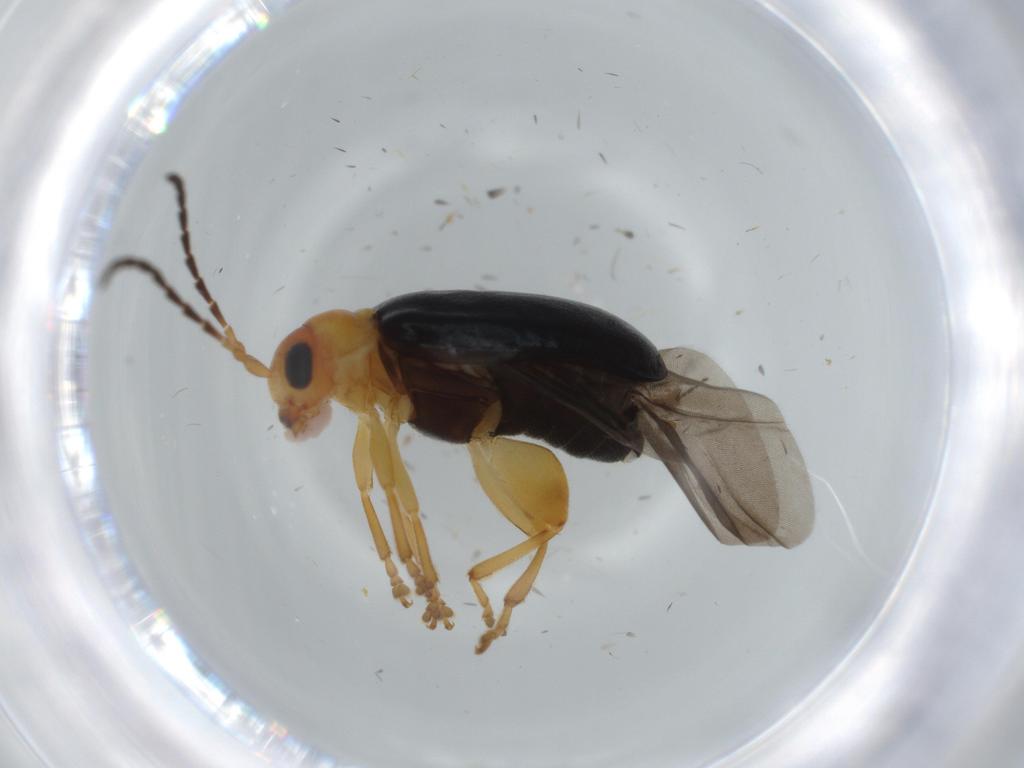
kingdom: Animalia
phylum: Arthropoda
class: Insecta
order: Coleoptera
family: Chrysomelidae
